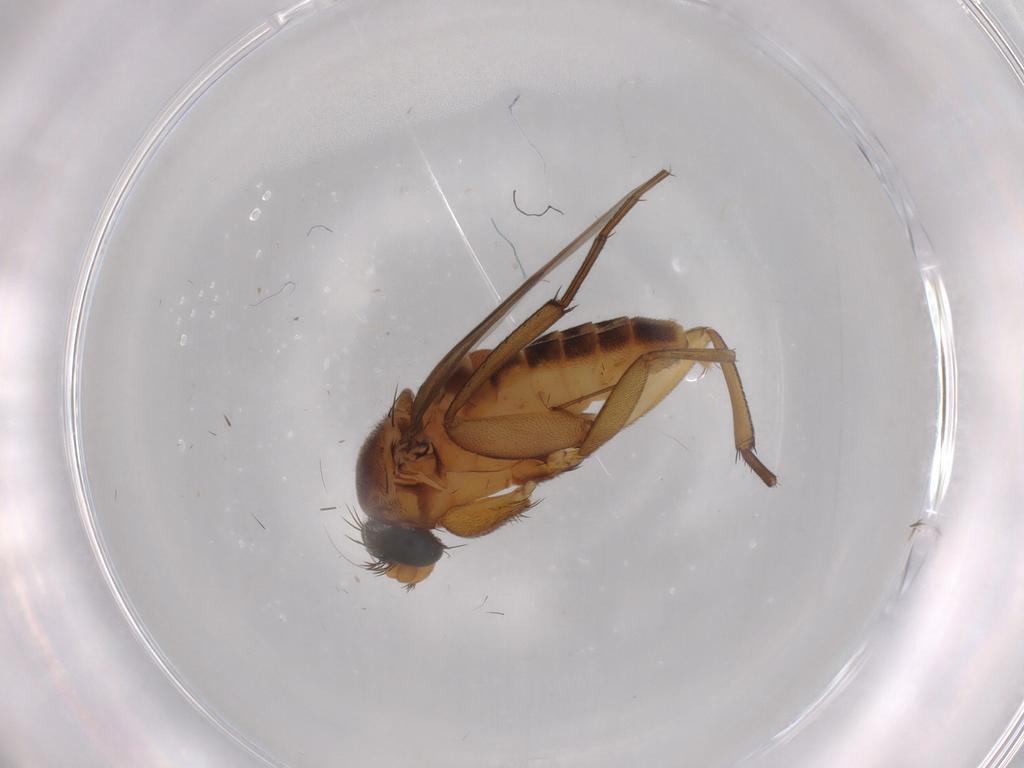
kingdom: Animalia
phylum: Arthropoda
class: Insecta
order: Diptera
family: Phoridae
